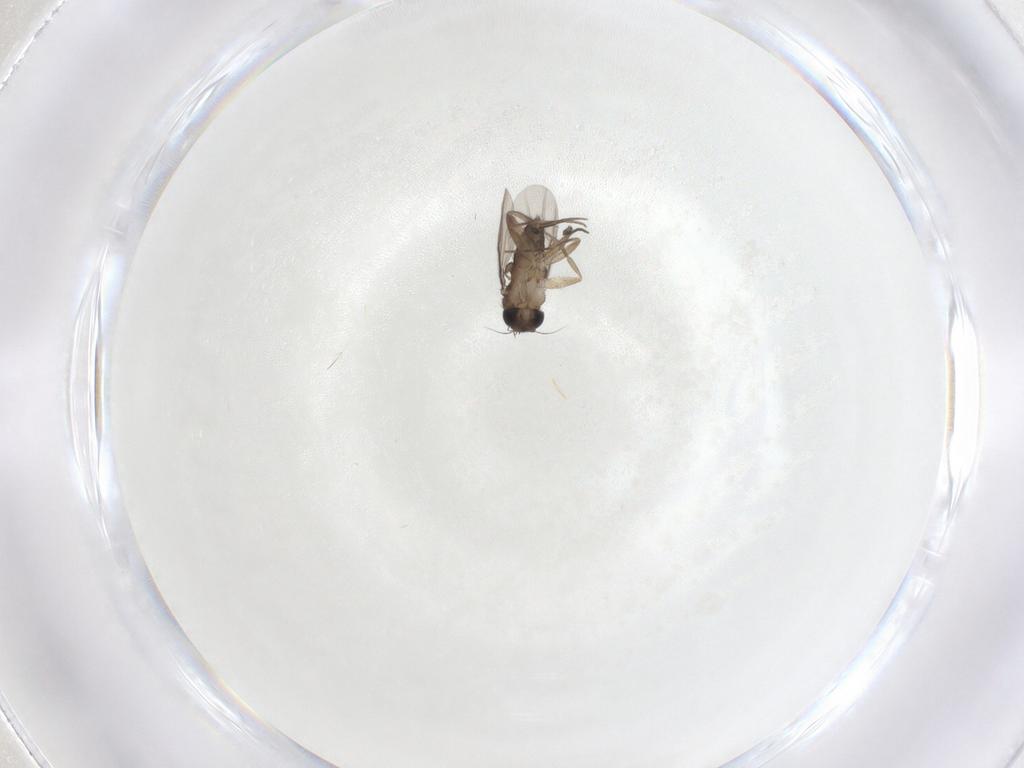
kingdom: Animalia
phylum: Arthropoda
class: Insecta
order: Diptera
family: Phoridae
